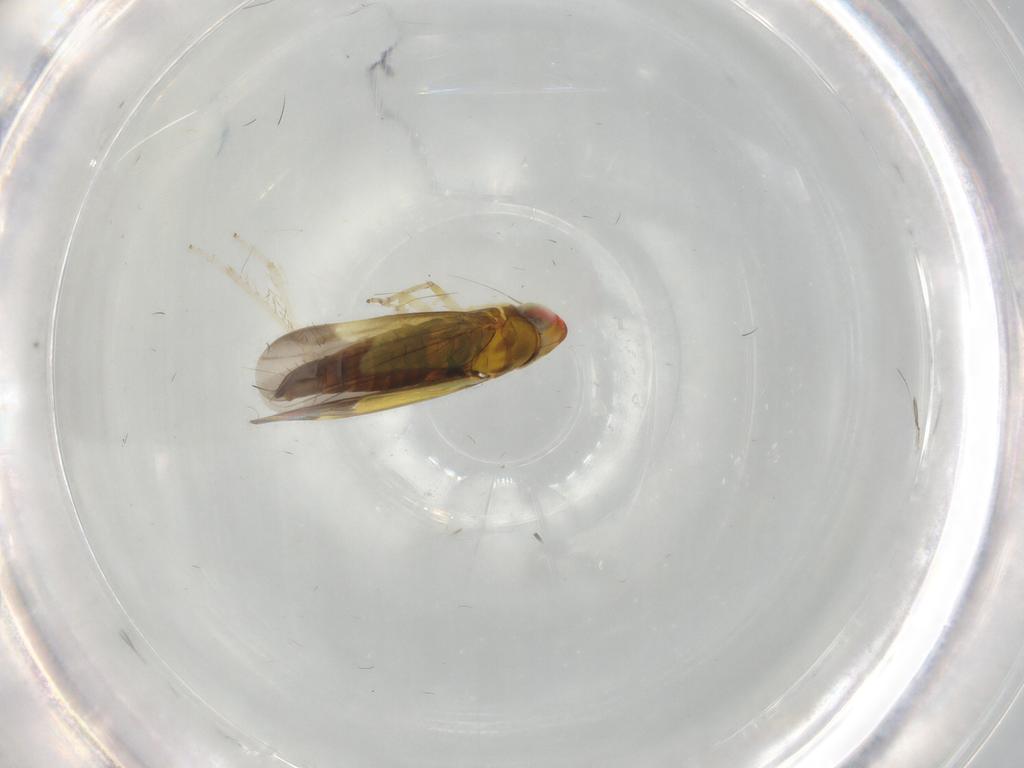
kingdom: Animalia
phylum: Arthropoda
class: Insecta
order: Hemiptera
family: Aleyrodidae
